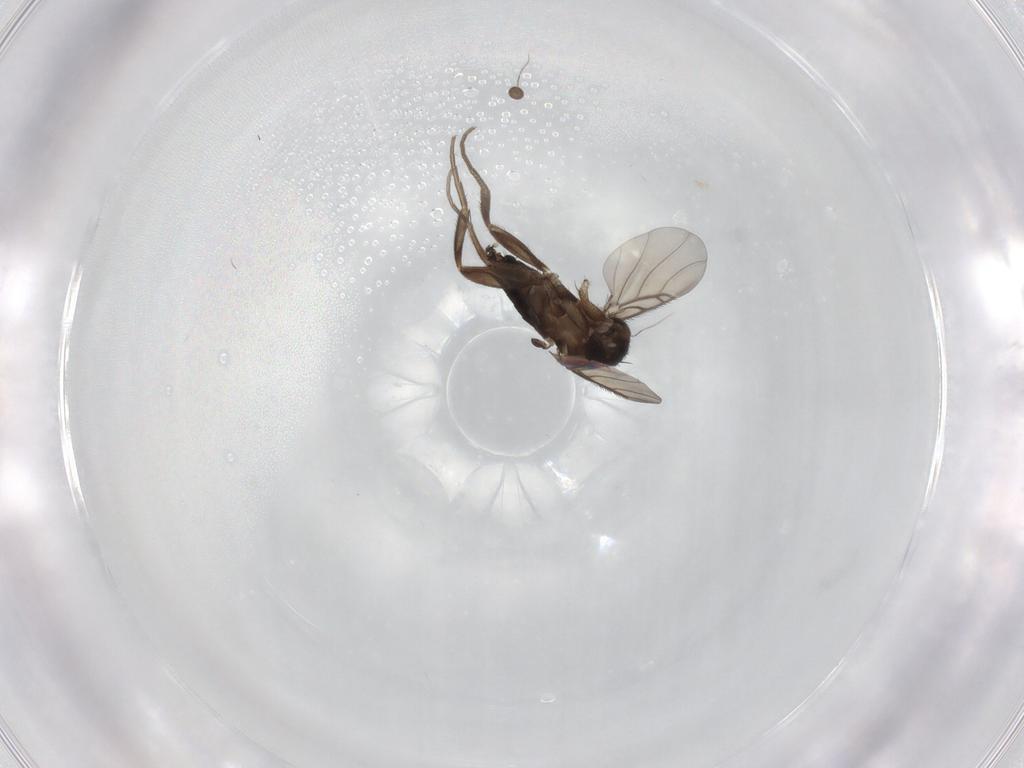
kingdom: Animalia
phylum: Arthropoda
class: Insecta
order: Diptera
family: Phoridae
